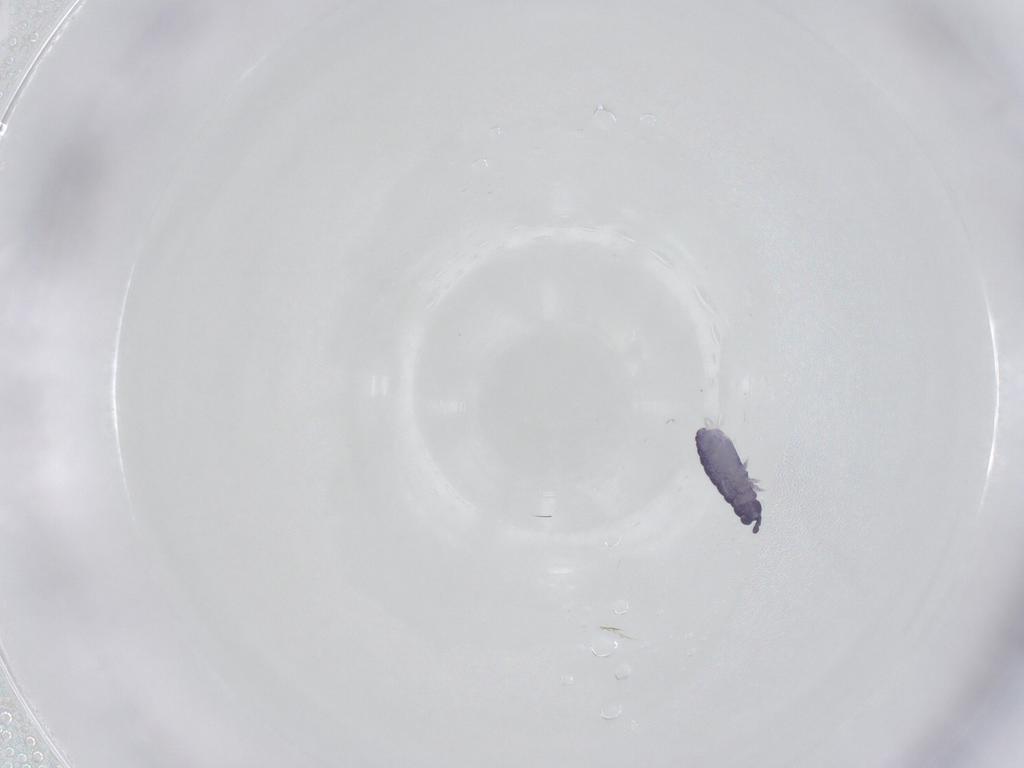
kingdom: Animalia
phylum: Arthropoda
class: Collembola
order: Poduromorpha
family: Neanuridae
